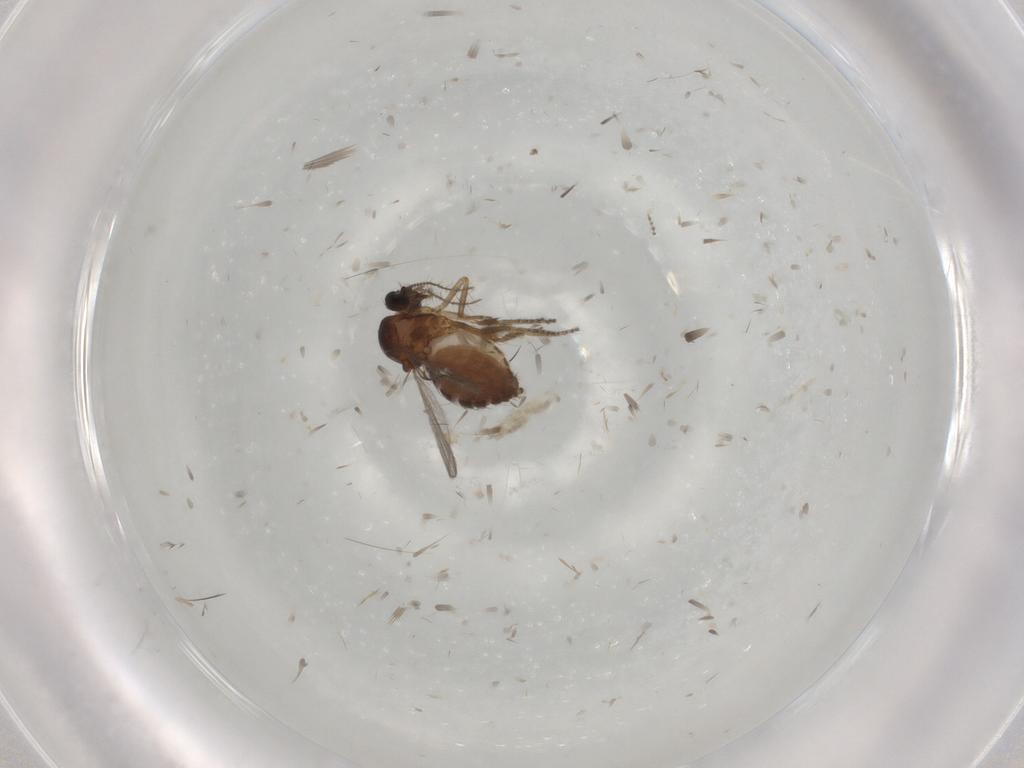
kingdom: Animalia
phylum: Arthropoda
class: Insecta
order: Diptera
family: Ceratopogonidae
